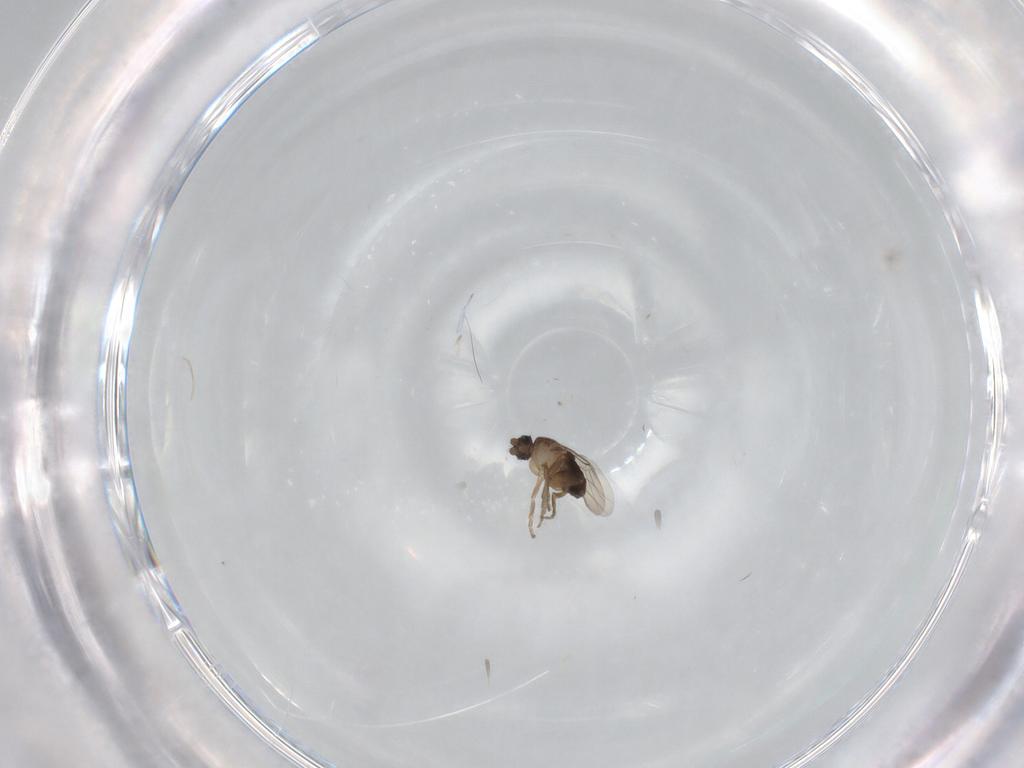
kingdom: Animalia
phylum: Arthropoda
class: Insecta
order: Diptera
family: Phoridae
